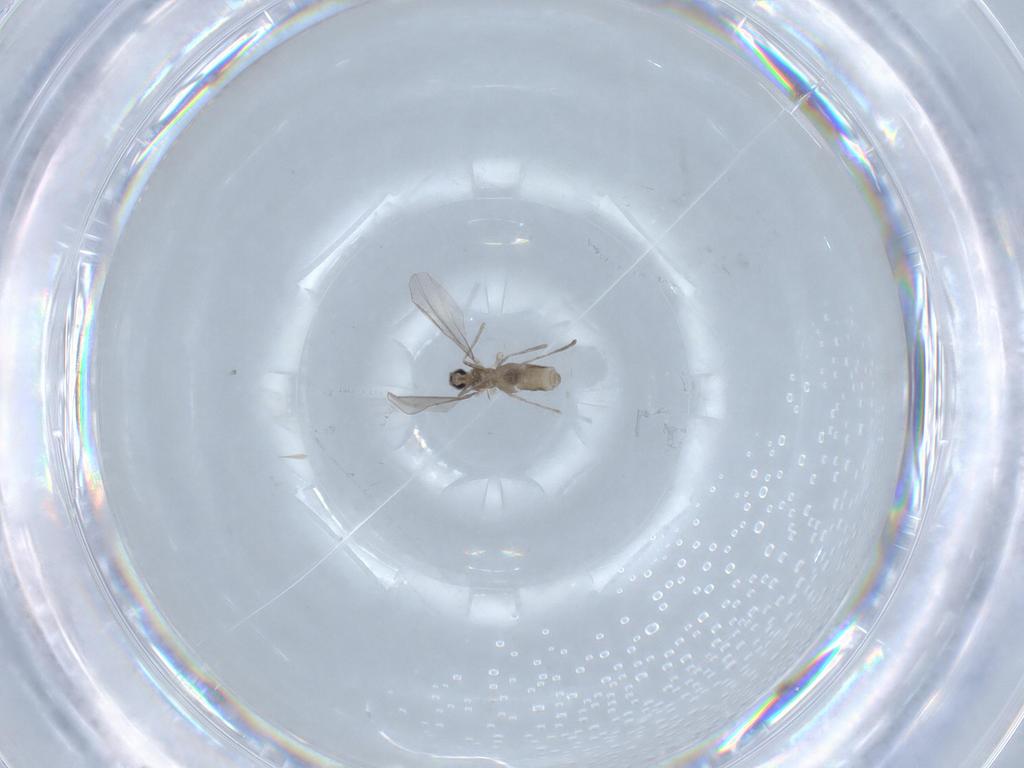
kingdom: Animalia
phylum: Arthropoda
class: Insecta
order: Diptera
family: Cecidomyiidae
